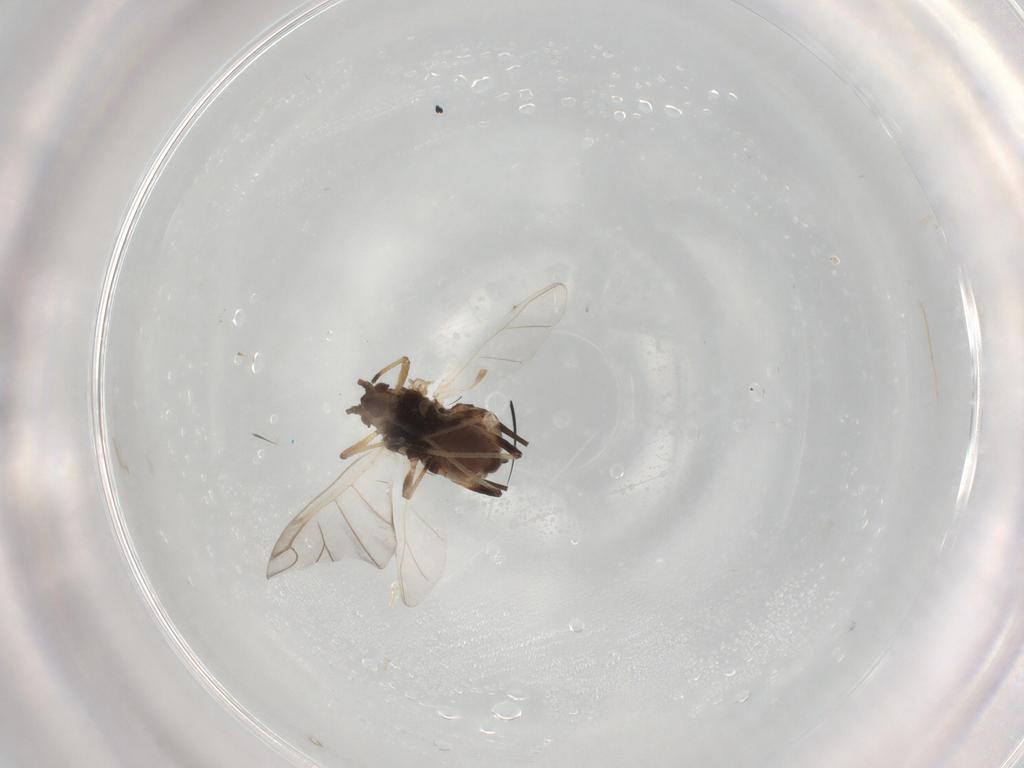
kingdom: Animalia
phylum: Arthropoda
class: Insecta
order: Hemiptera
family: Aphididae
